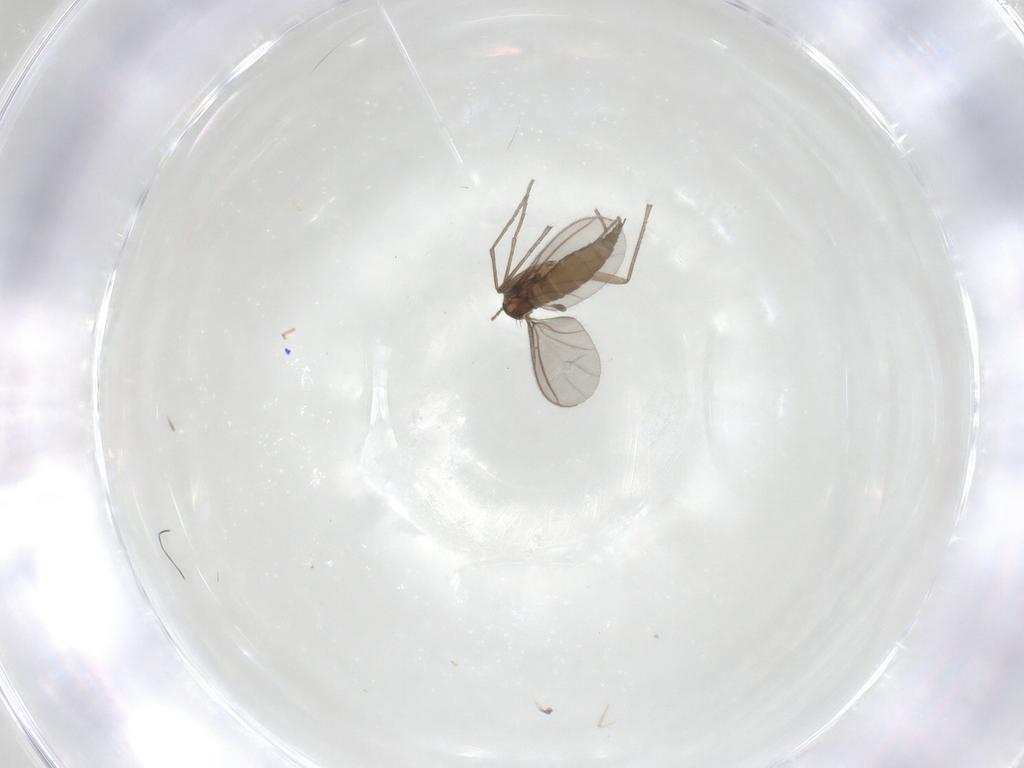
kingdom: Animalia
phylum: Arthropoda
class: Insecta
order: Diptera
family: Sciaridae
